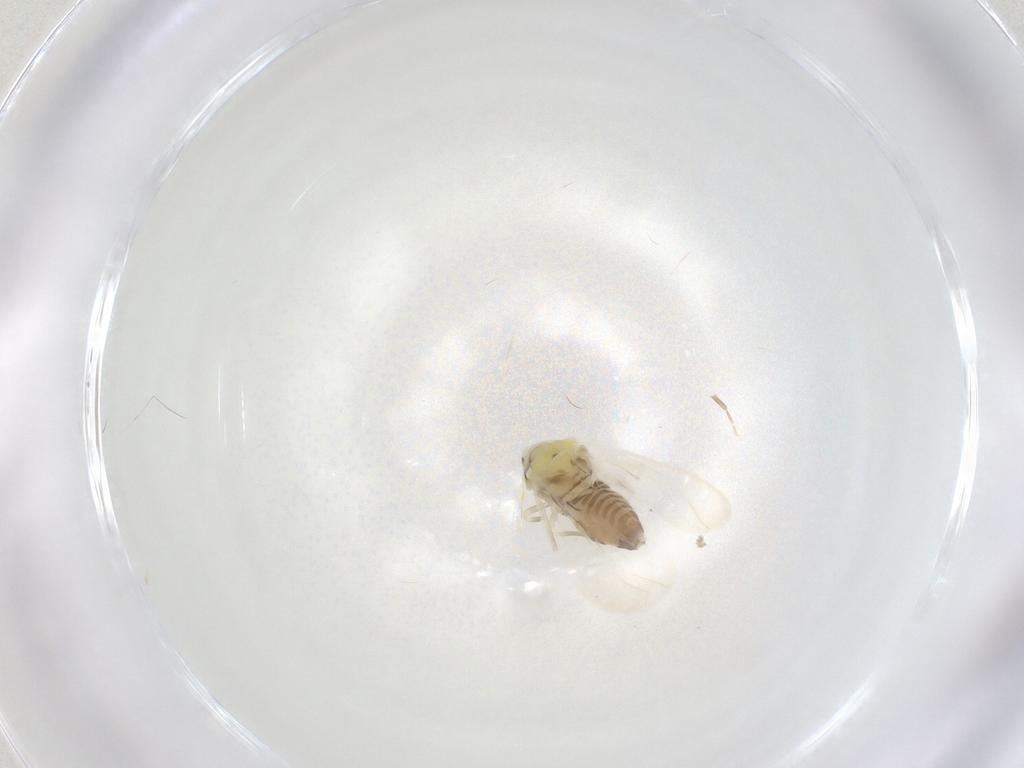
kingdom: Animalia
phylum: Arthropoda
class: Insecta
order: Hemiptera
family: Aleyrodidae
